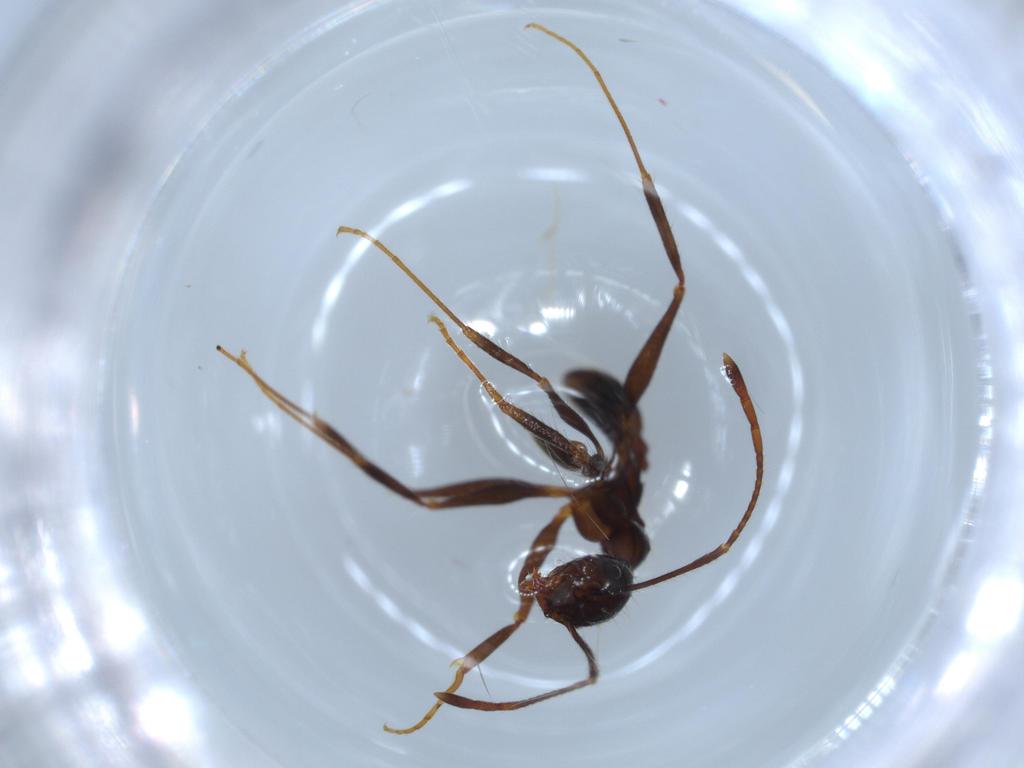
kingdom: Animalia
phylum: Arthropoda
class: Insecta
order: Hymenoptera
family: Formicidae
